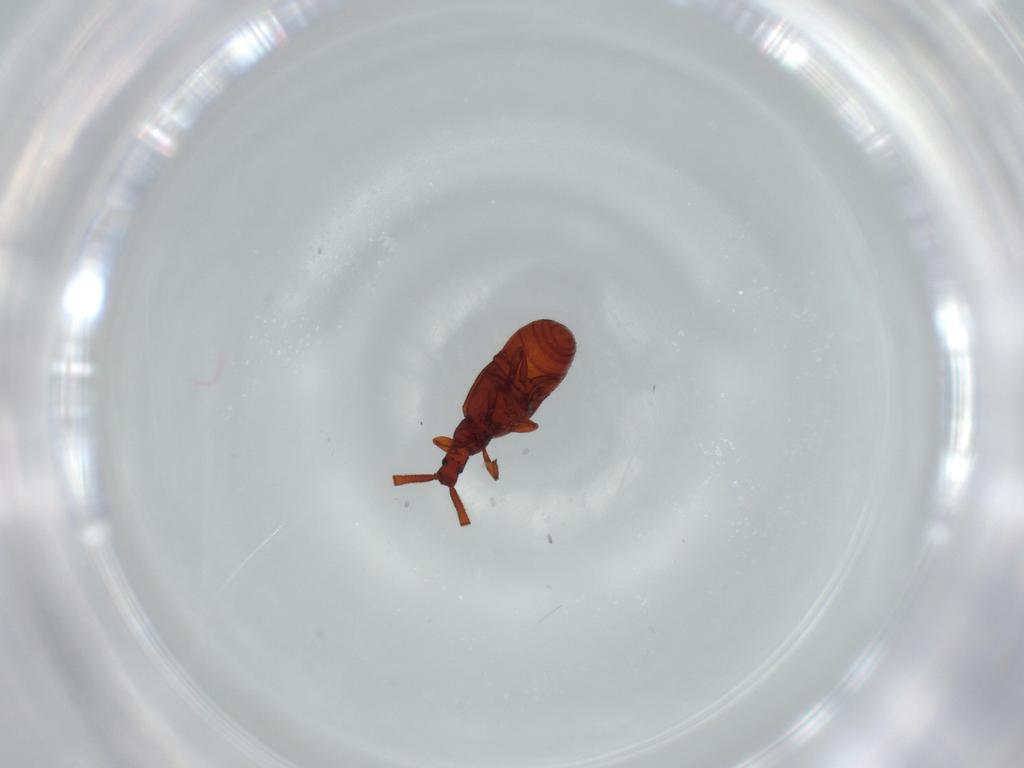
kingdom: Animalia
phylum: Arthropoda
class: Insecta
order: Coleoptera
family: Staphylinidae
